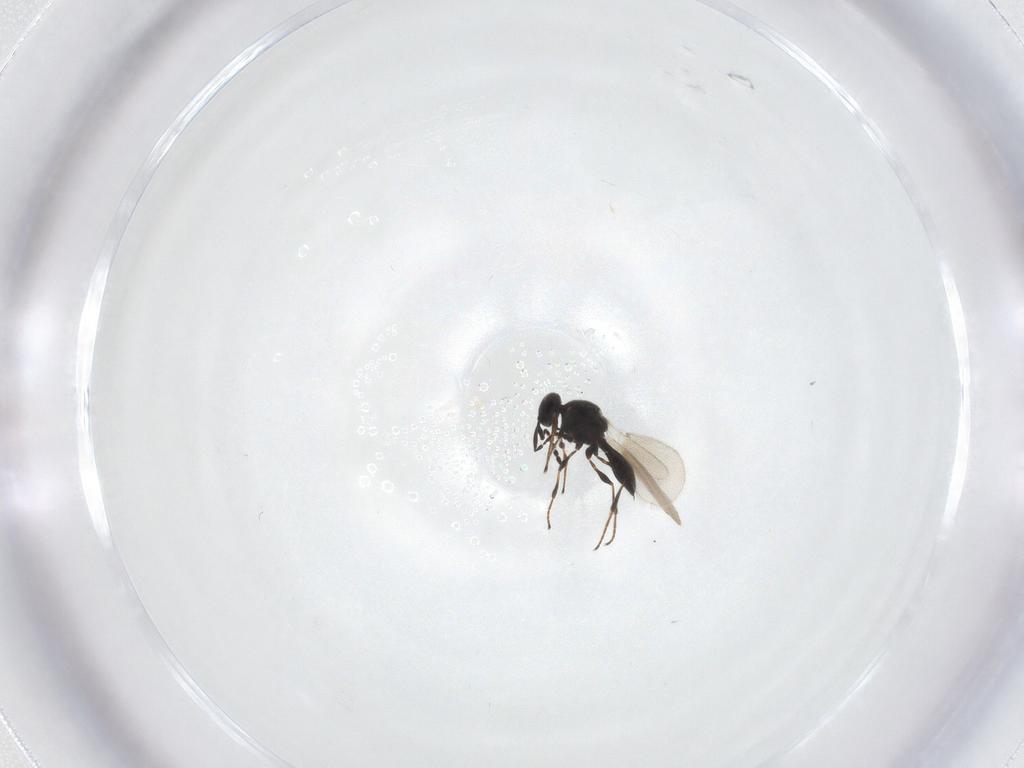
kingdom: Animalia
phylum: Arthropoda
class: Insecta
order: Hymenoptera
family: Platygastridae
